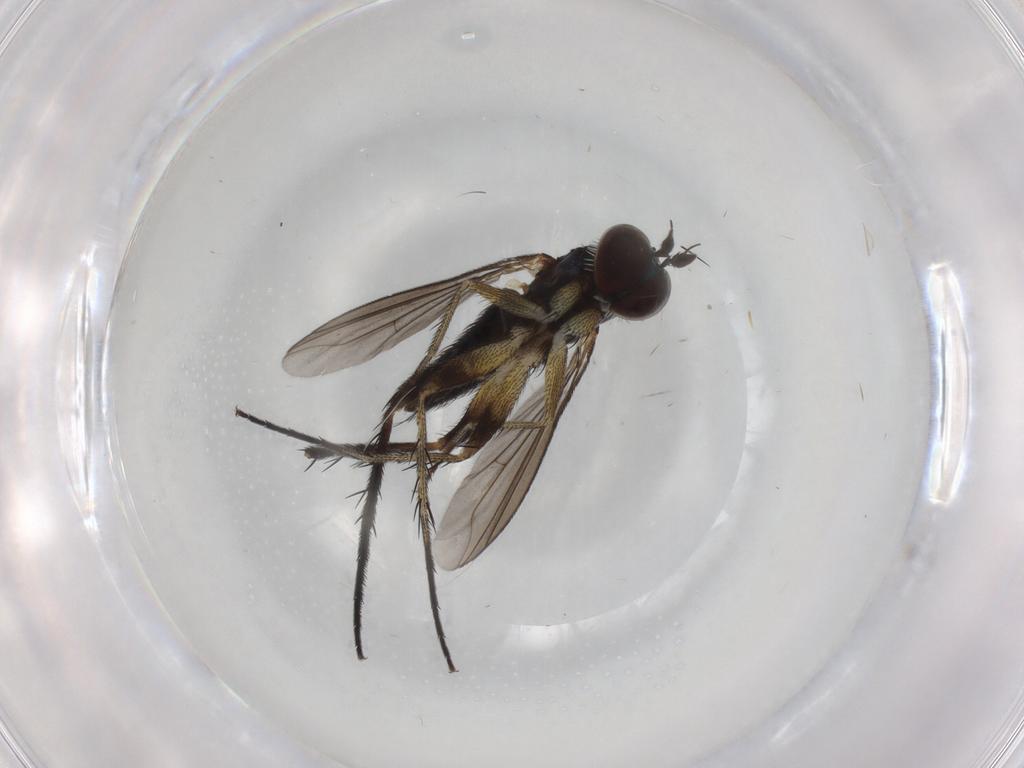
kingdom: Animalia
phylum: Arthropoda
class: Insecta
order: Diptera
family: Dolichopodidae
